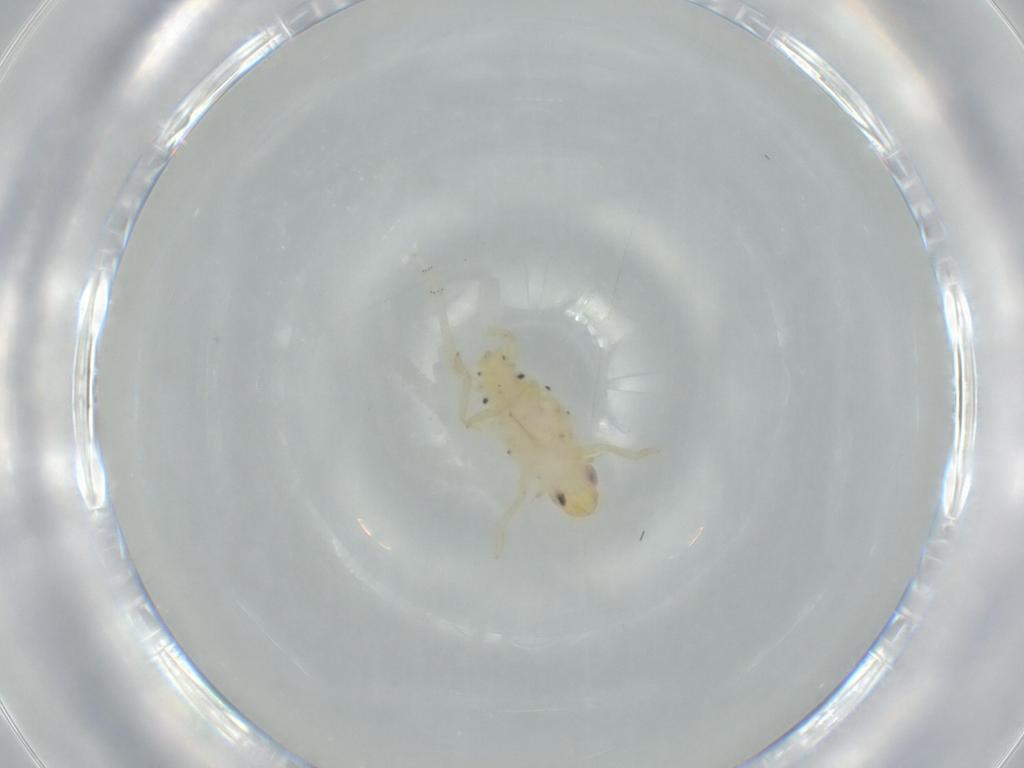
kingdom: Animalia
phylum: Arthropoda
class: Insecta
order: Hemiptera
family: Tropiduchidae
